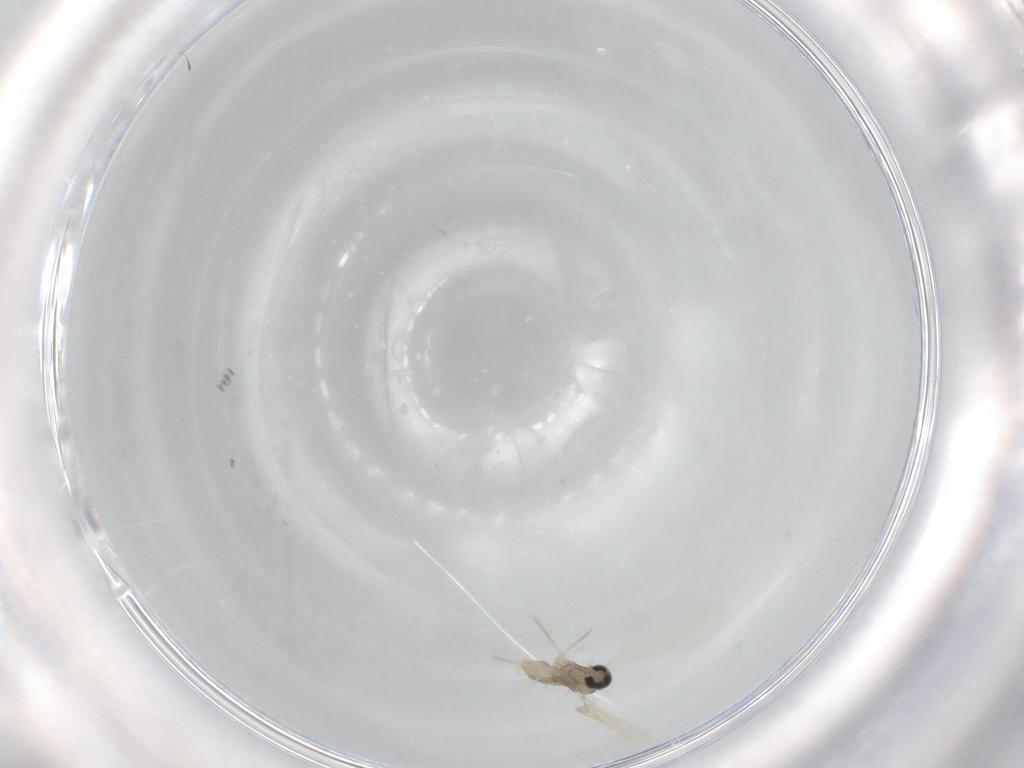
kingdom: Animalia
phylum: Arthropoda
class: Insecta
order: Diptera
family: Cecidomyiidae
